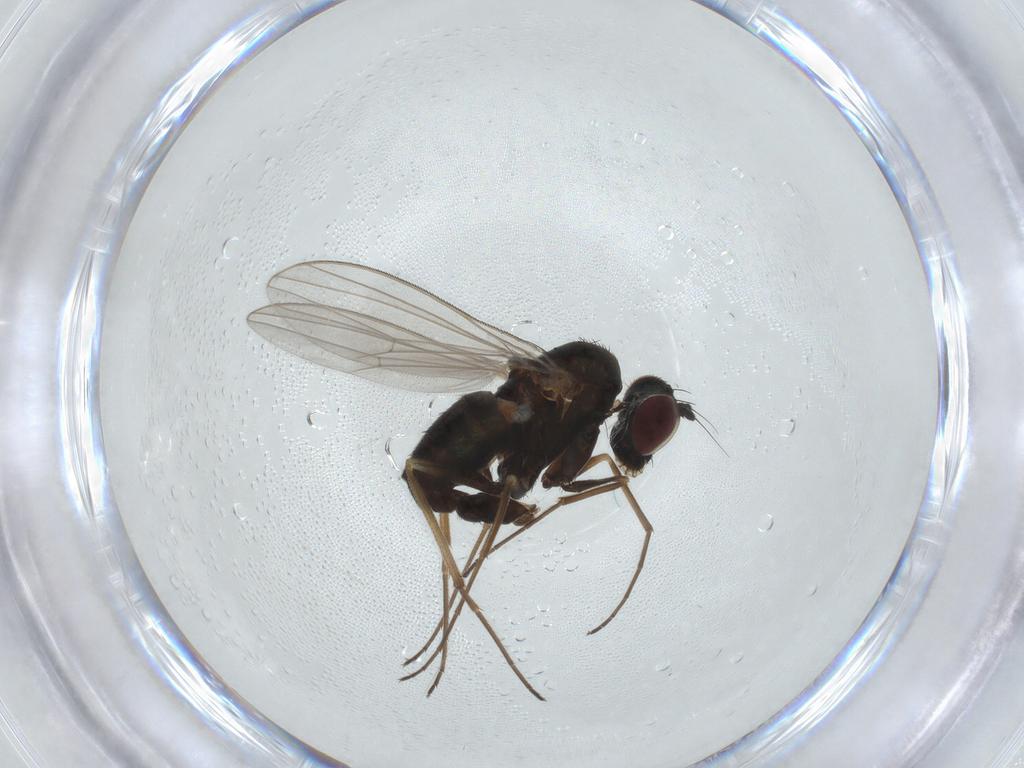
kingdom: Animalia
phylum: Arthropoda
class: Insecta
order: Diptera
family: Dolichopodidae
